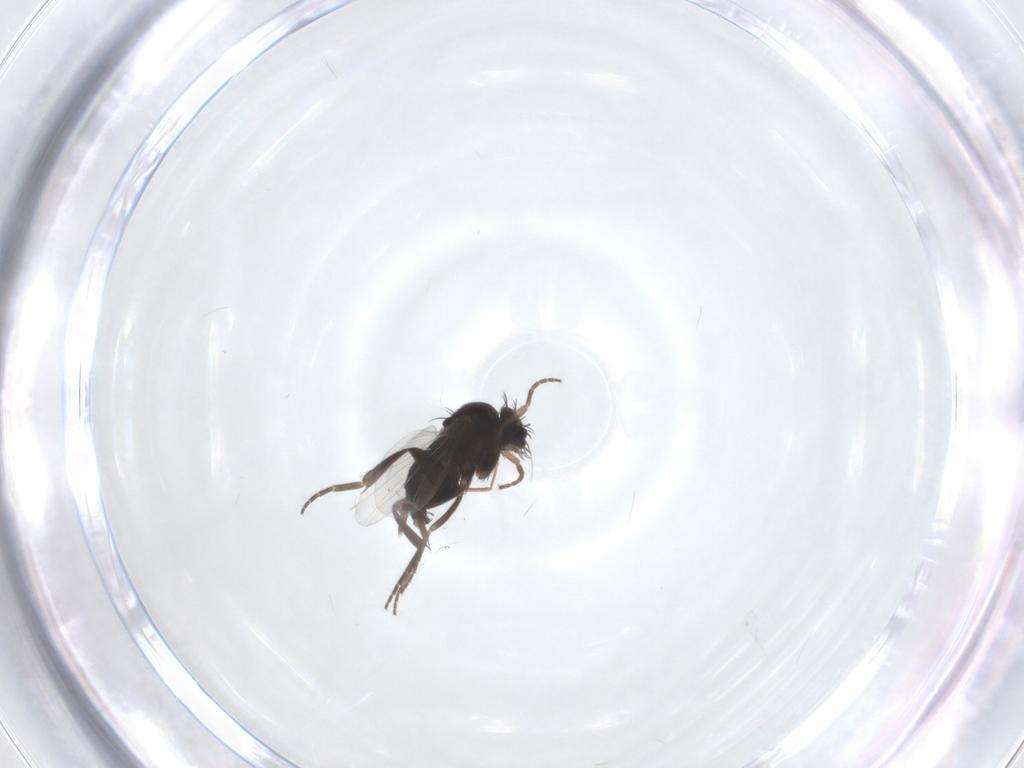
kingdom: Animalia
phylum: Arthropoda
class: Insecta
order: Diptera
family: Phoridae
